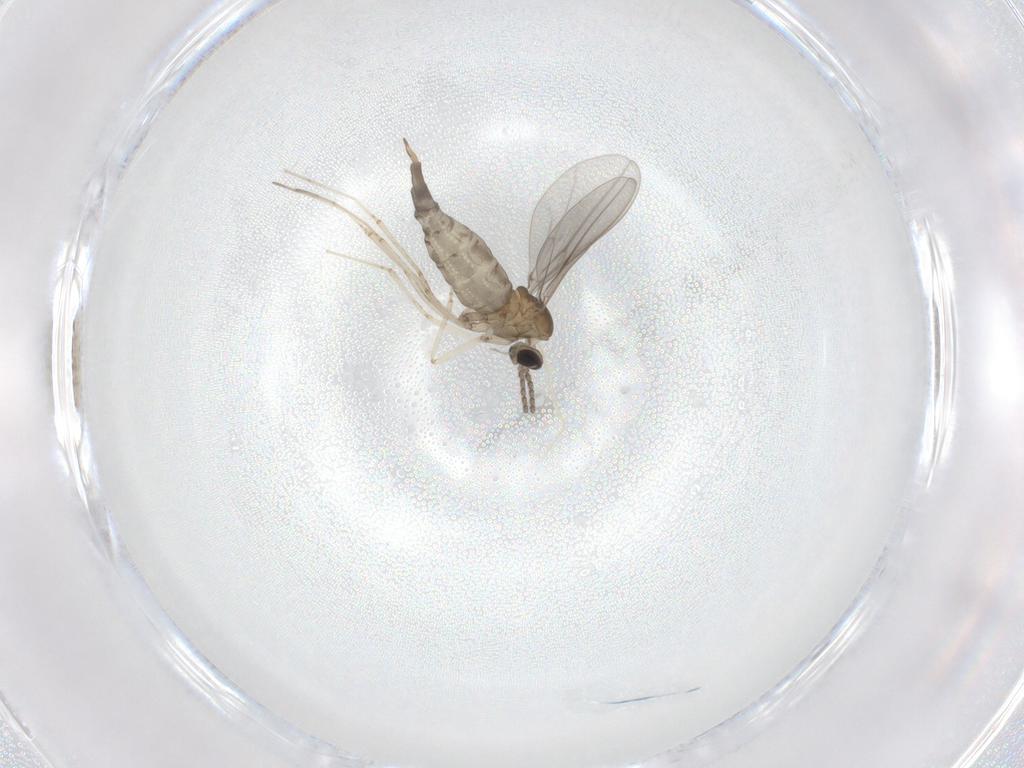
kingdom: Animalia
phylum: Arthropoda
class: Insecta
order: Diptera
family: Cecidomyiidae
